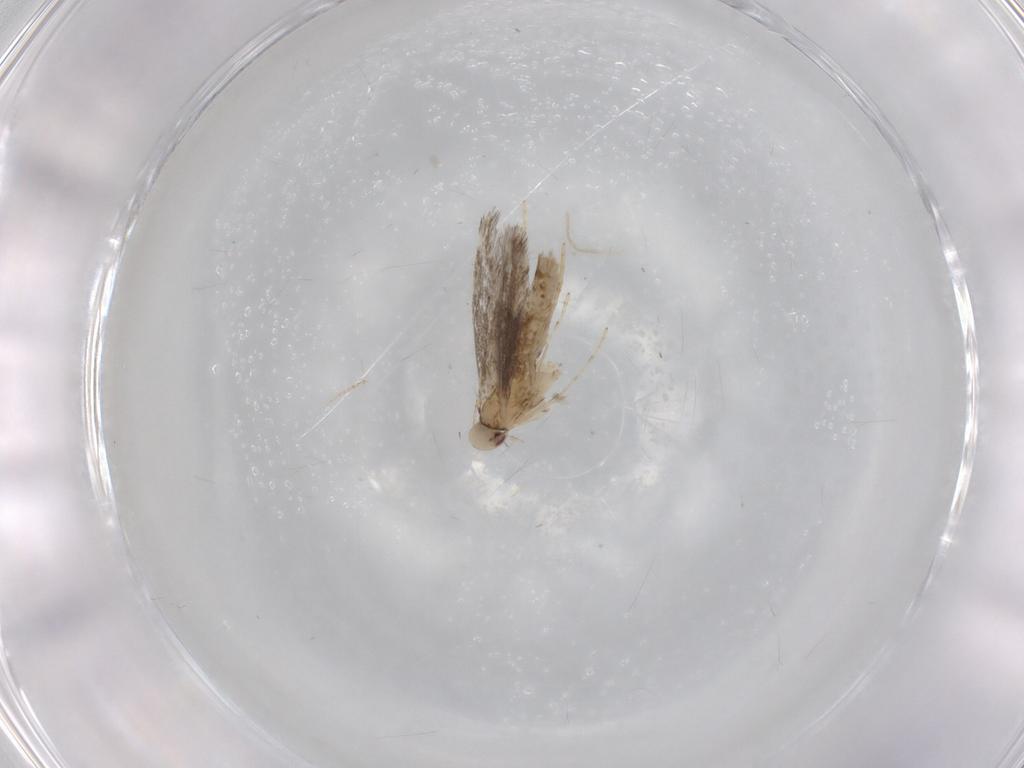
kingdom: Animalia
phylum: Arthropoda
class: Insecta
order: Lepidoptera
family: Gracillariidae
